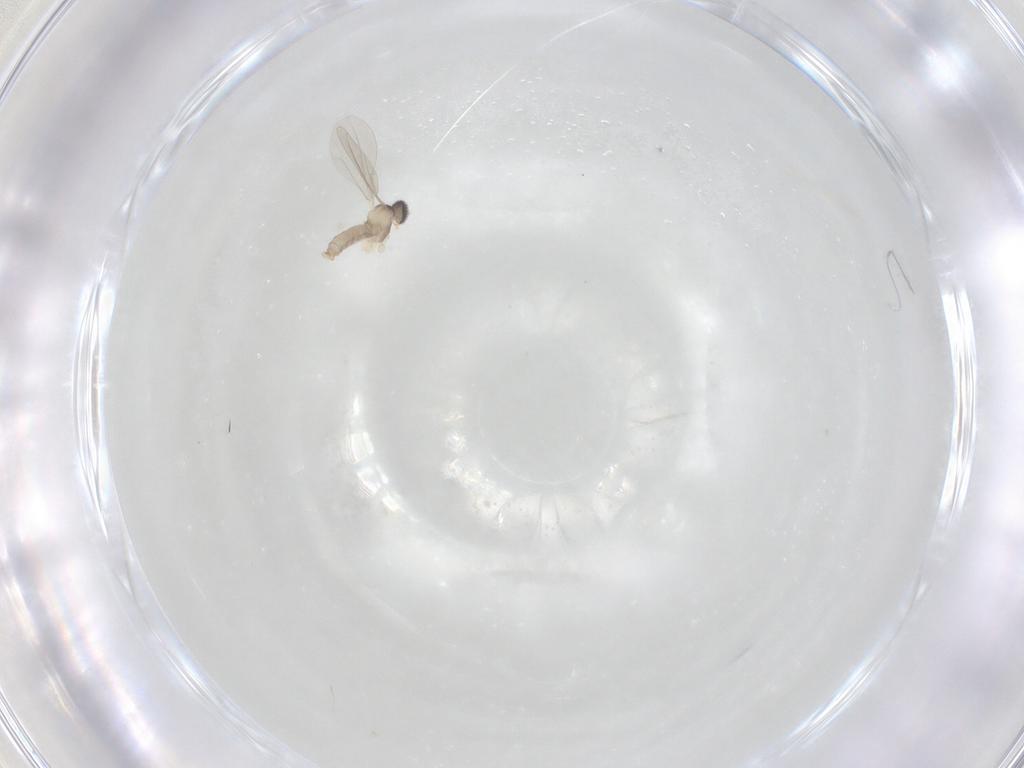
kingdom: Animalia
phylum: Arthropoda
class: Insecta
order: Diptera
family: Cecidomyiidae
